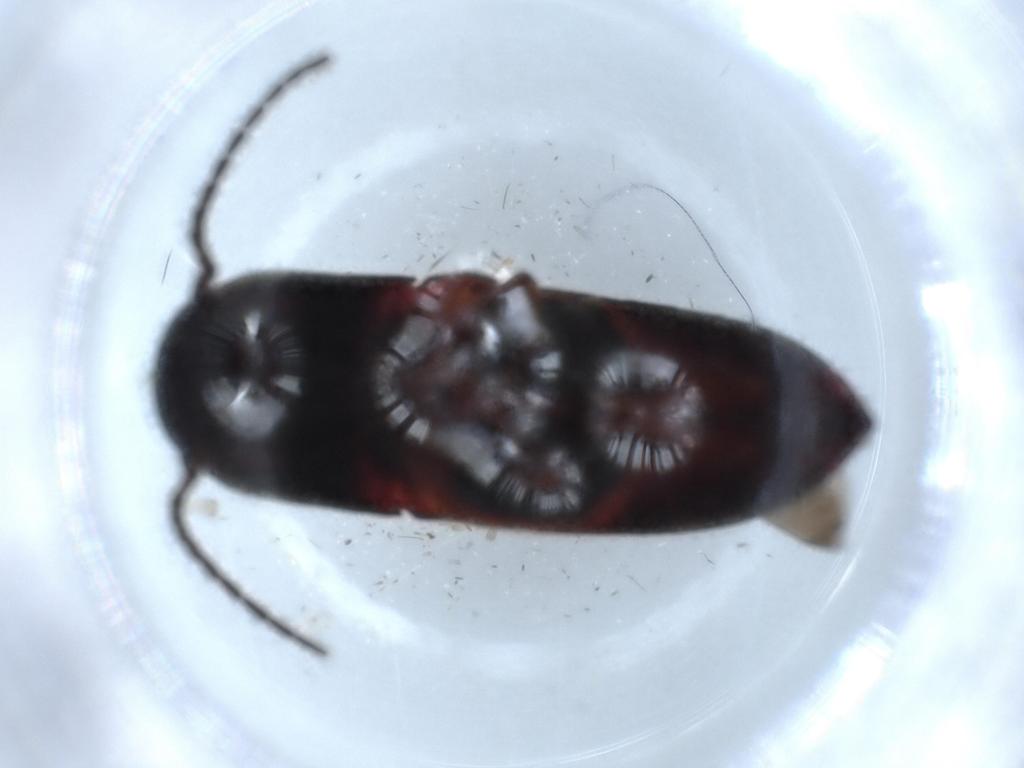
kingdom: Animalia
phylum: Arthropoda
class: Insecta
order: Coleoptera
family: Eucnemidae
